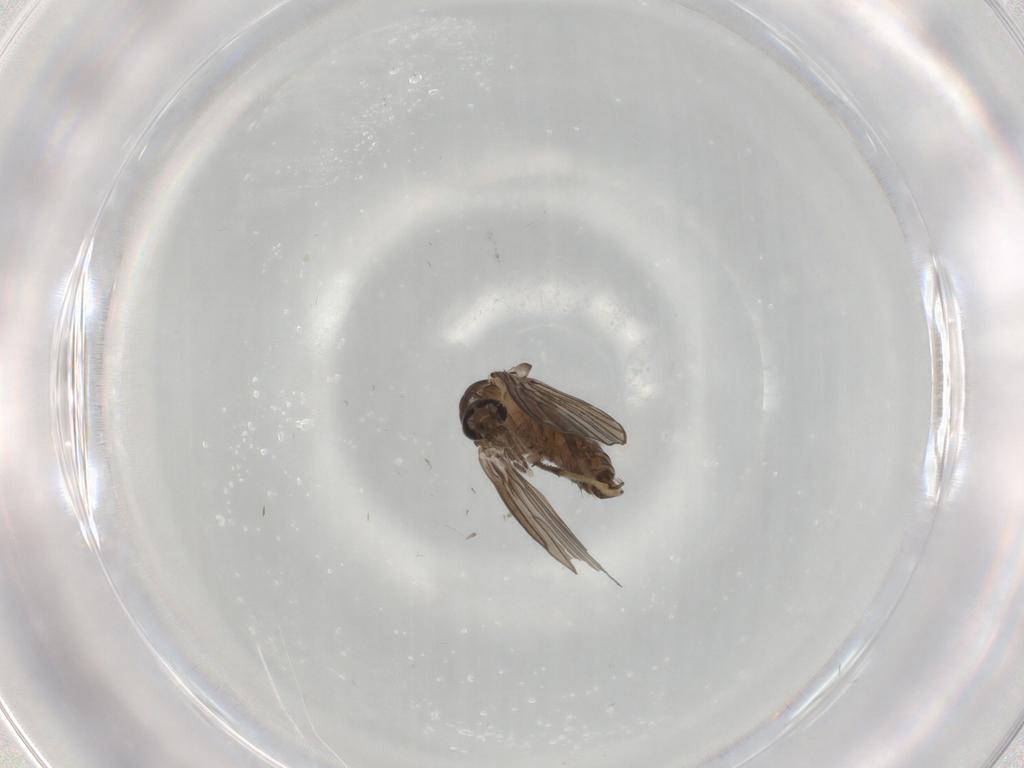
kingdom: Animalia
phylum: Arthropoda
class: Insecta
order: Diptera
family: Psychodidae
